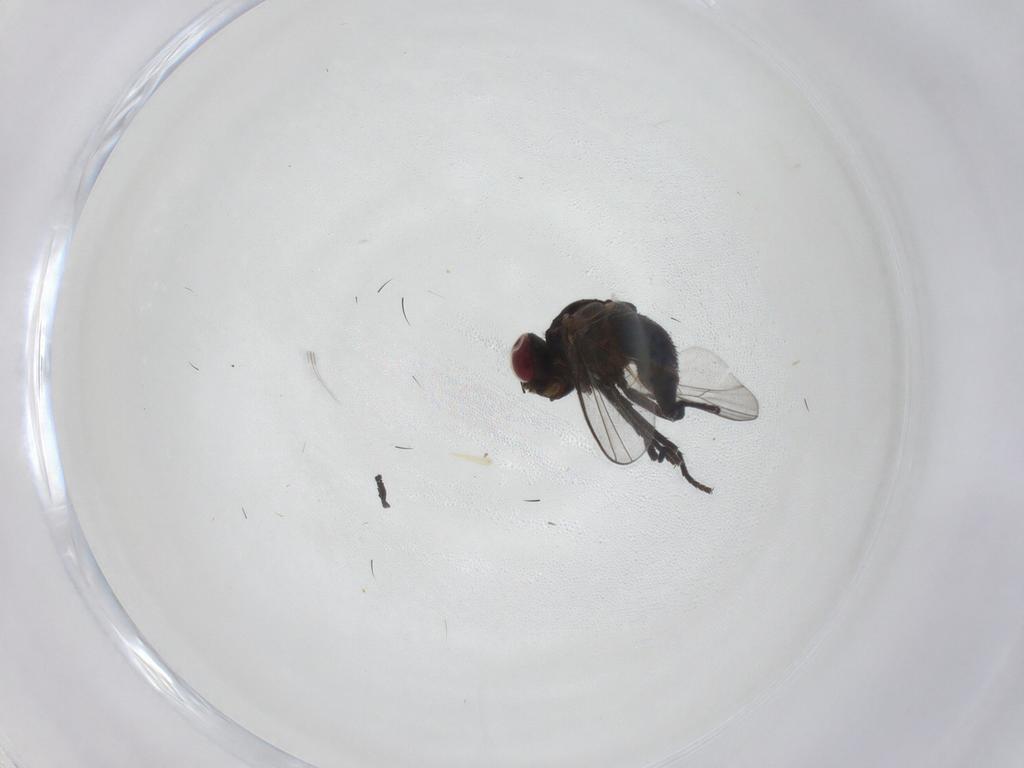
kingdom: Animalia
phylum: Arthropoda
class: Insecta
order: Diptera
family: Agromyzidae
